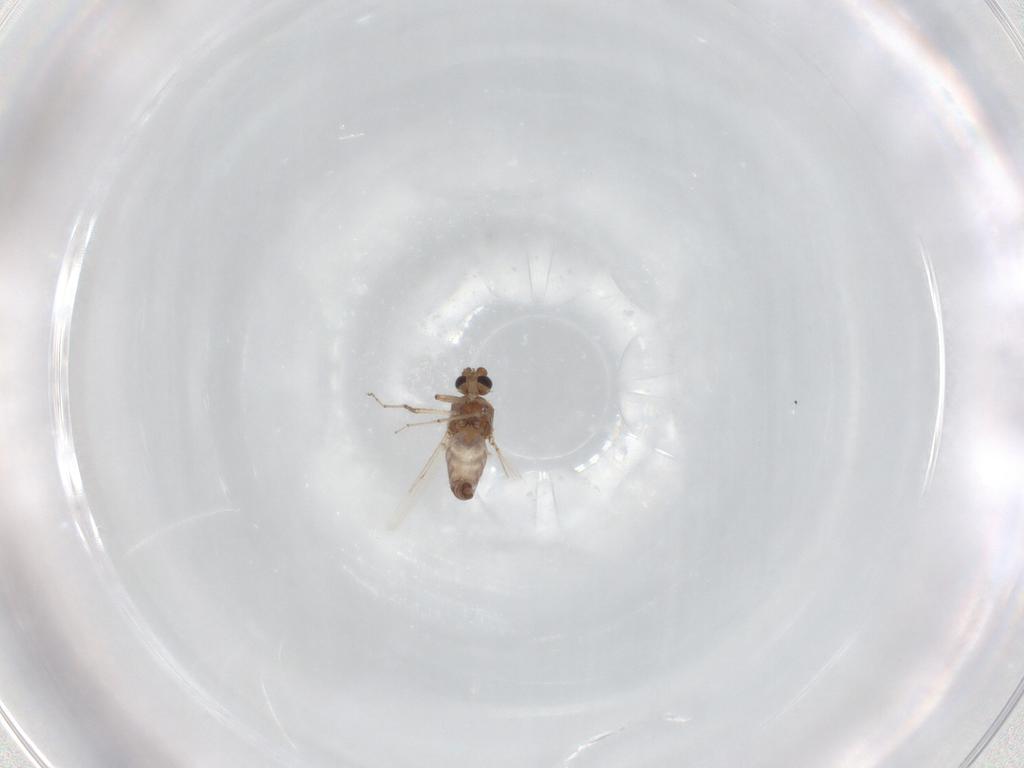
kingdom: Animalia
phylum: Arthropoda
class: Insecta
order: Diptera
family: Ceratopogonidae
